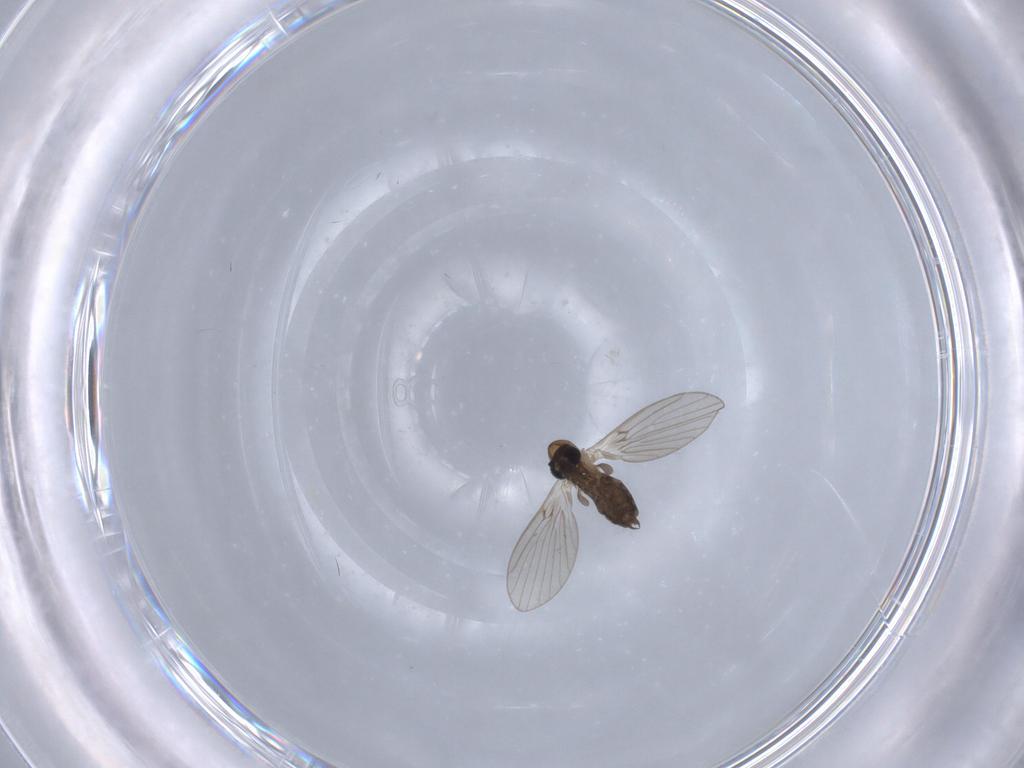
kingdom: Animalia
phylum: Arthropoda
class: Insecta
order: Diptera
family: Psychodidae
